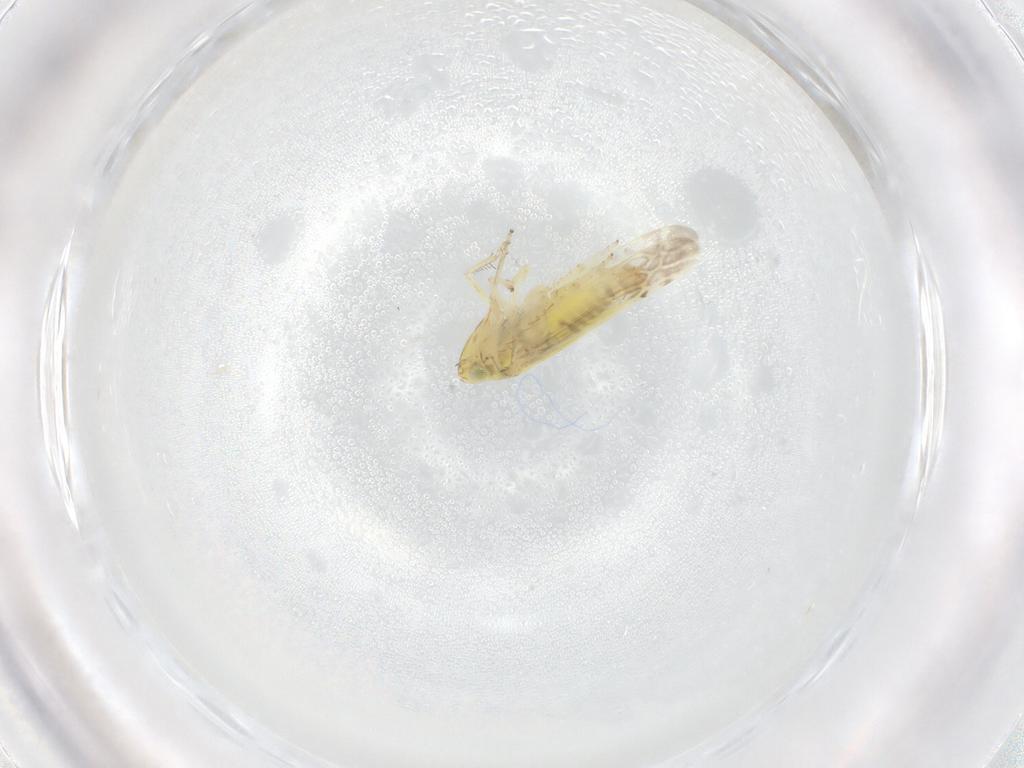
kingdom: Animalia
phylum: Arthropoda
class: Insecta
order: Hemiptera
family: Cicadellidae
